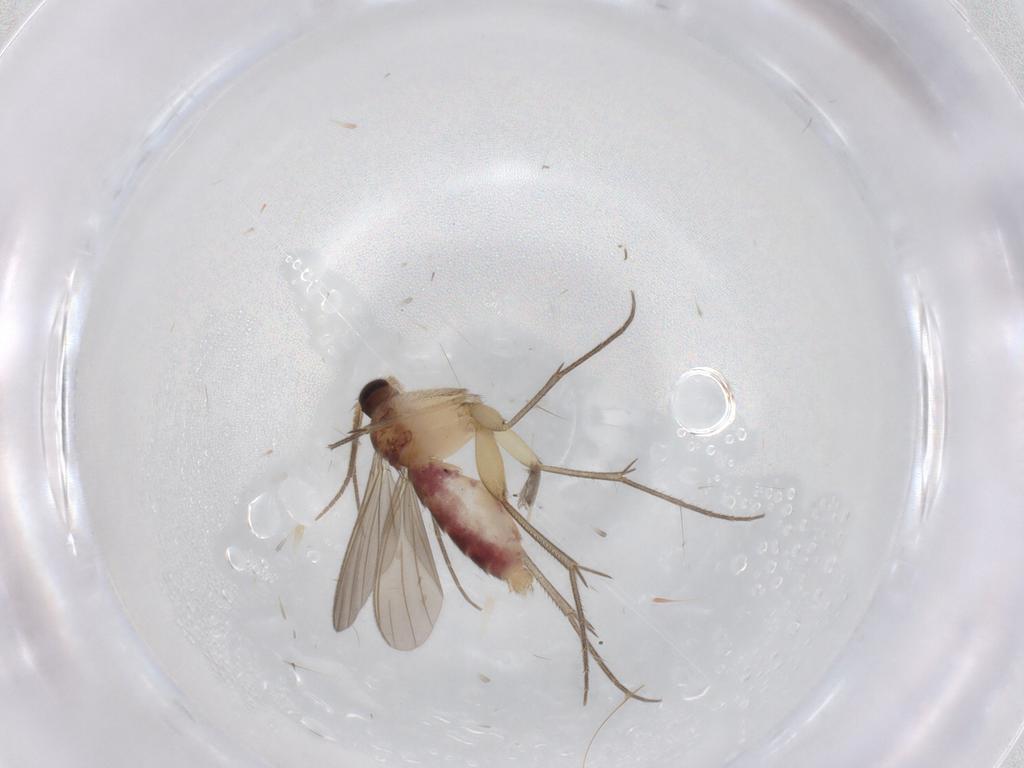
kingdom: Animalia
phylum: Arthropoda
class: Insecta
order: Diptera
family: Mycetophilidae
